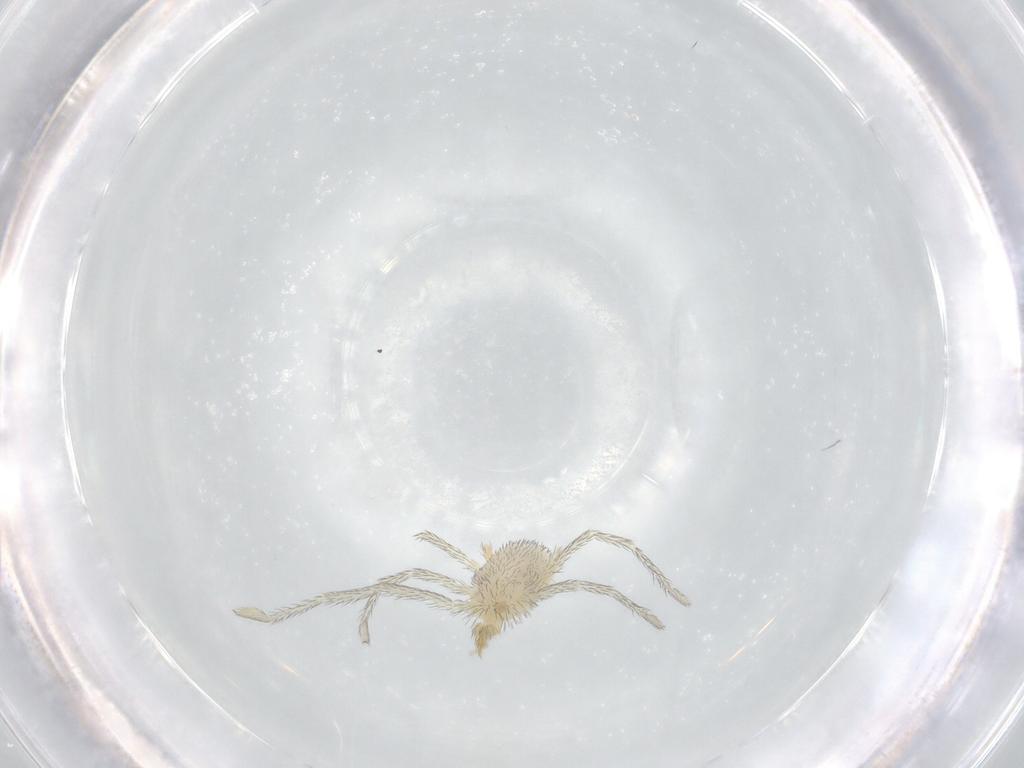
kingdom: Animalia
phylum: Arthropoda
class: Arachnida
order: Trombidiformes
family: Erythraeidae
